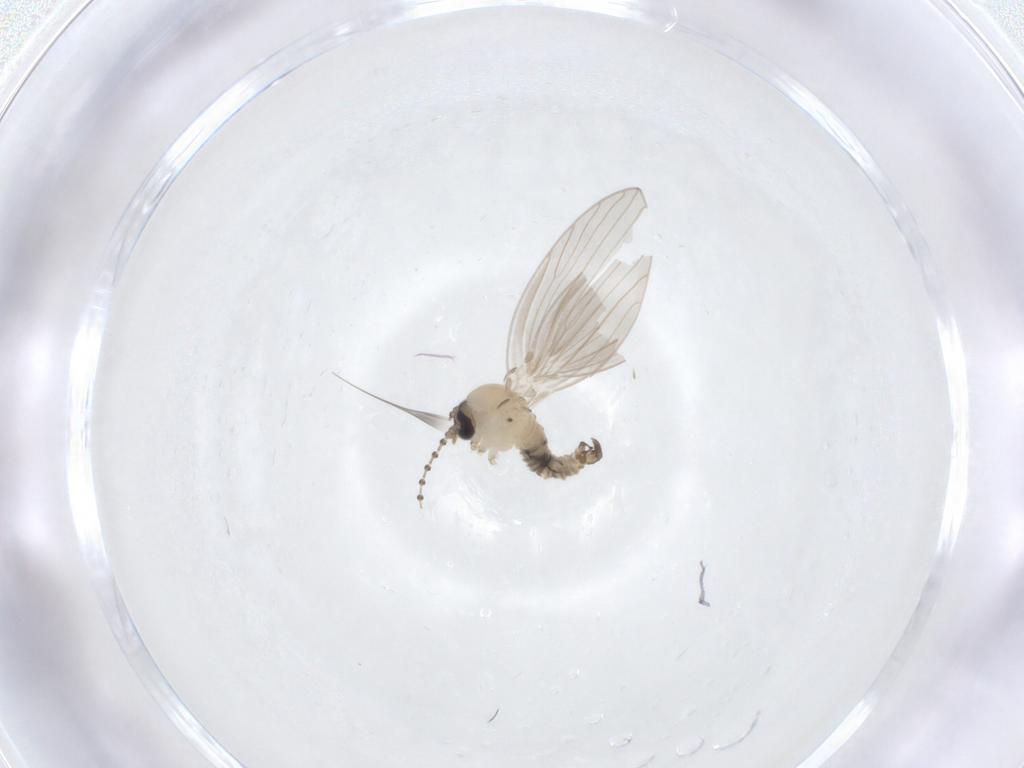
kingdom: Animalia
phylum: Arthropoda
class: Insecta
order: Diptera
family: Psychodidae
